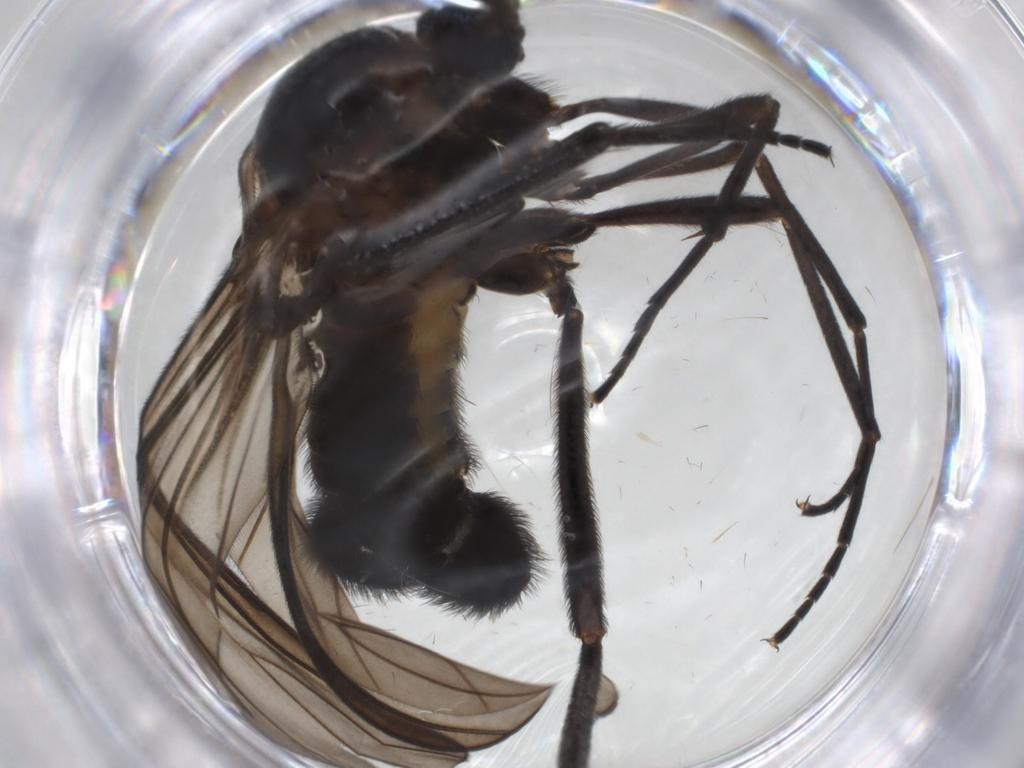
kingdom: Animalia
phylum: Arthropoda
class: Insecta
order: Diptera
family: Sciaridae
